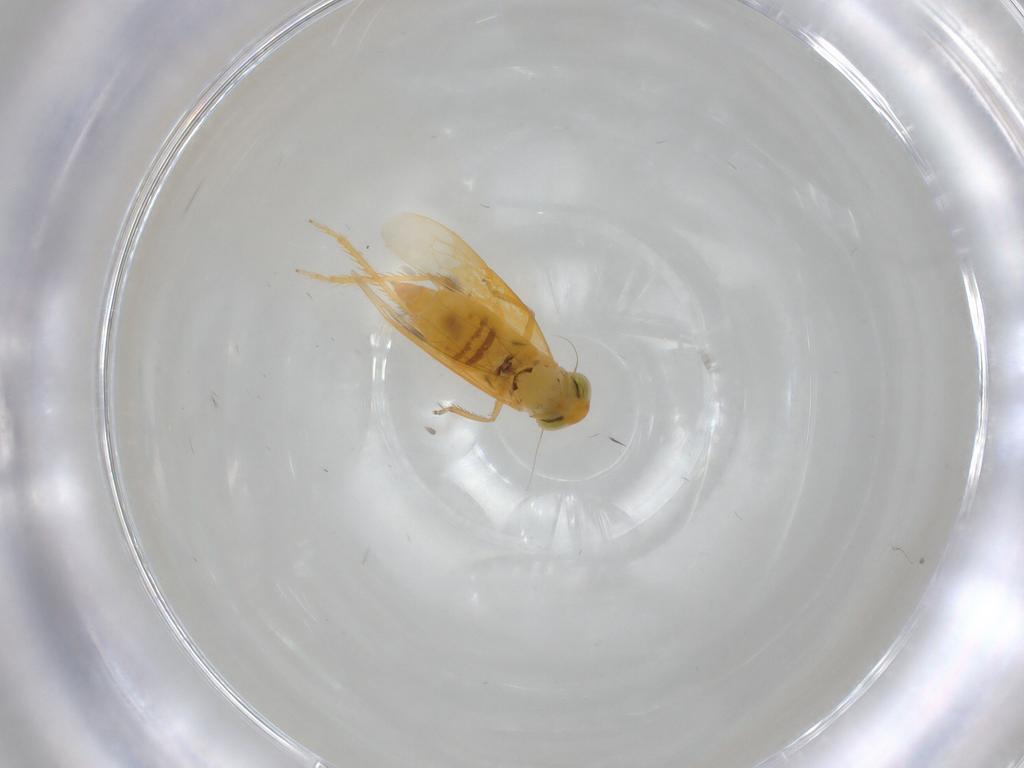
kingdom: Animalia
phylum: Arthropoda
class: Insecta
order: Hemiptera
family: Cicadellidae
